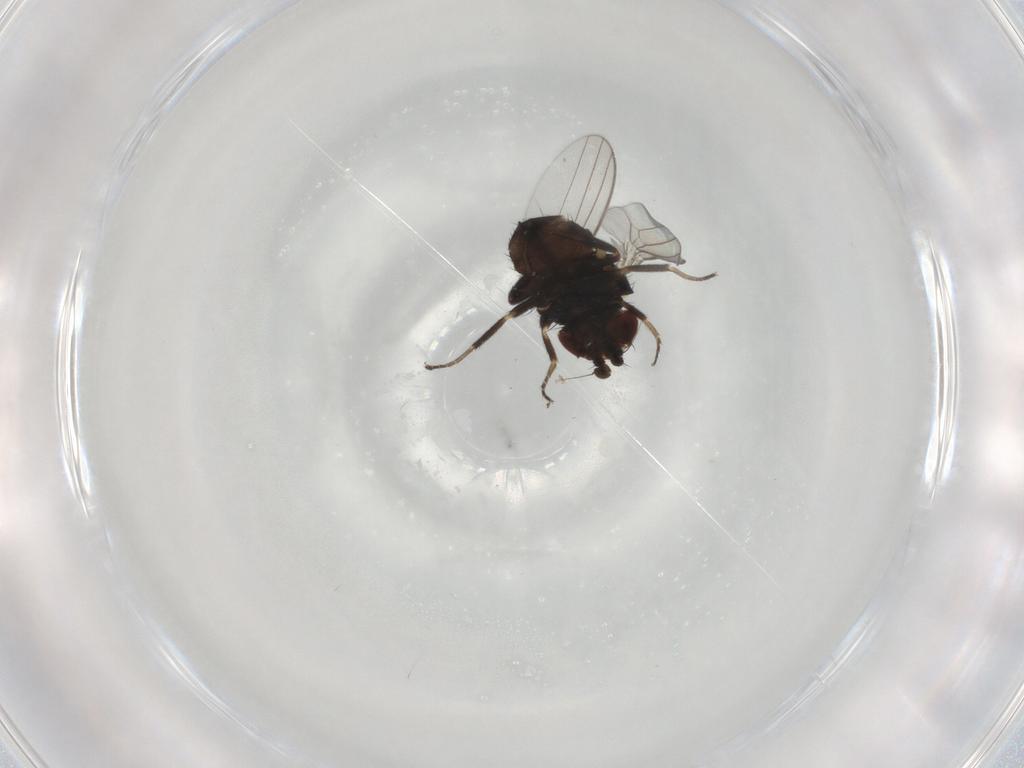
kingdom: Animalia
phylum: Arthropoda
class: Insecta
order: Diptera
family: Milichiidae
